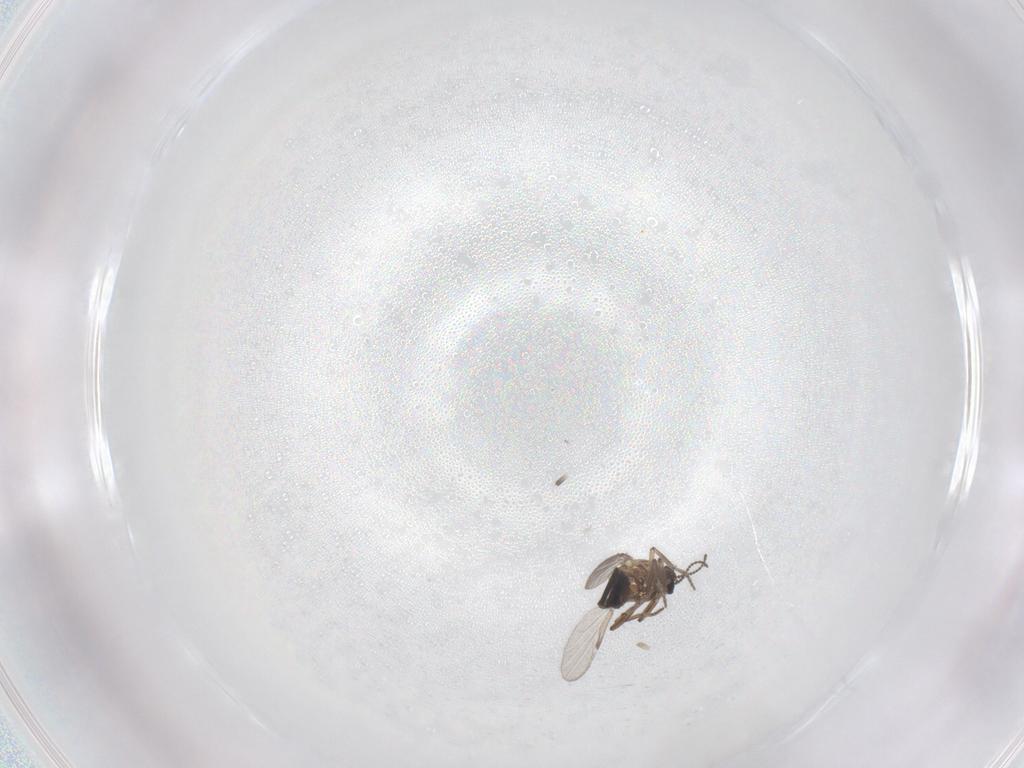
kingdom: Animalia
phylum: Arthropoda
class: Insecta
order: Diptera
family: Ceratopogonidae
